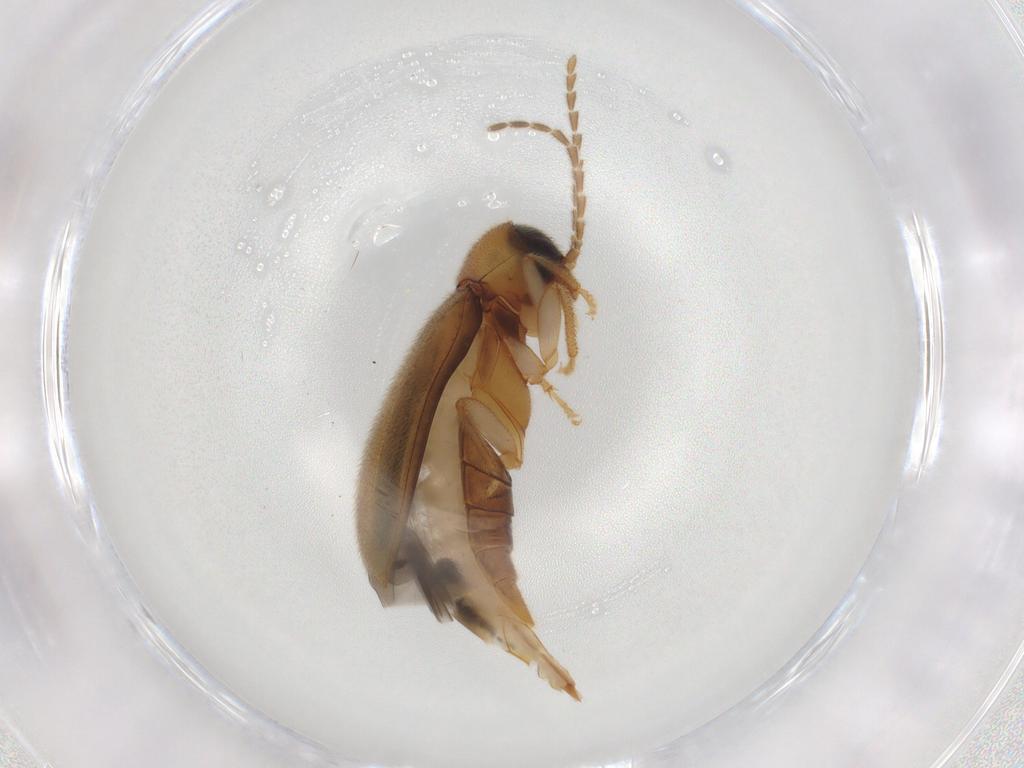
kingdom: Animalia
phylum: Arthropoda
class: Insecta
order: Coleoptera
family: Ptilodactylidae
